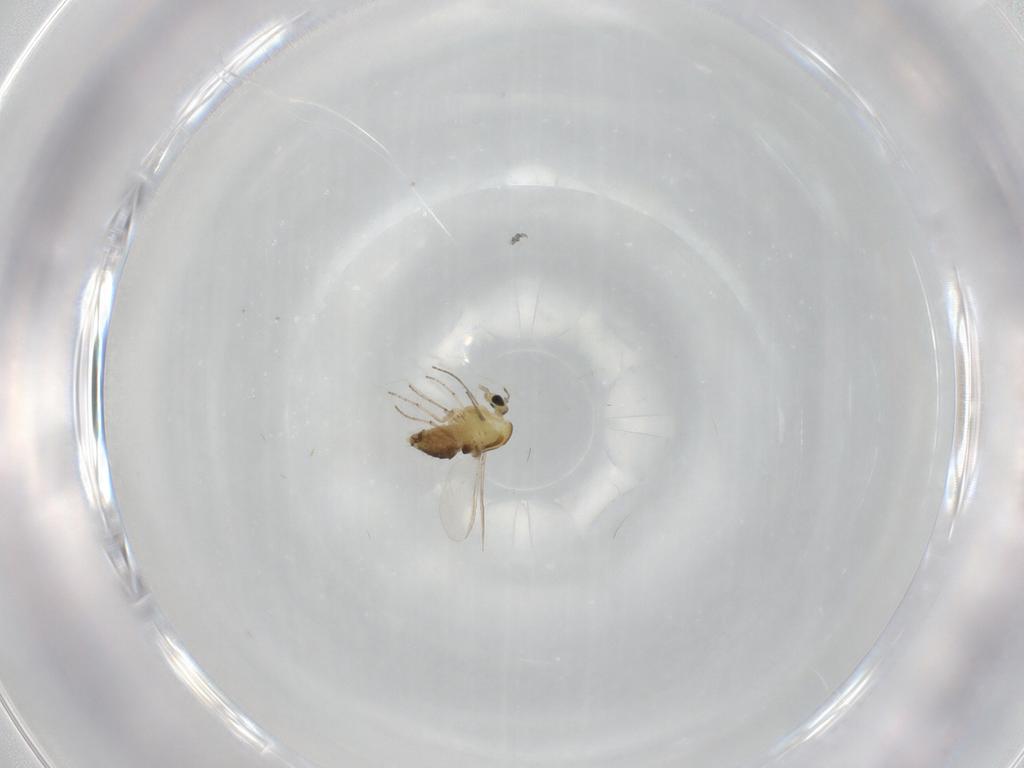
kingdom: Animalia
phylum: Arthropoda
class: Insecta
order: Diptera
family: Chironomidae
